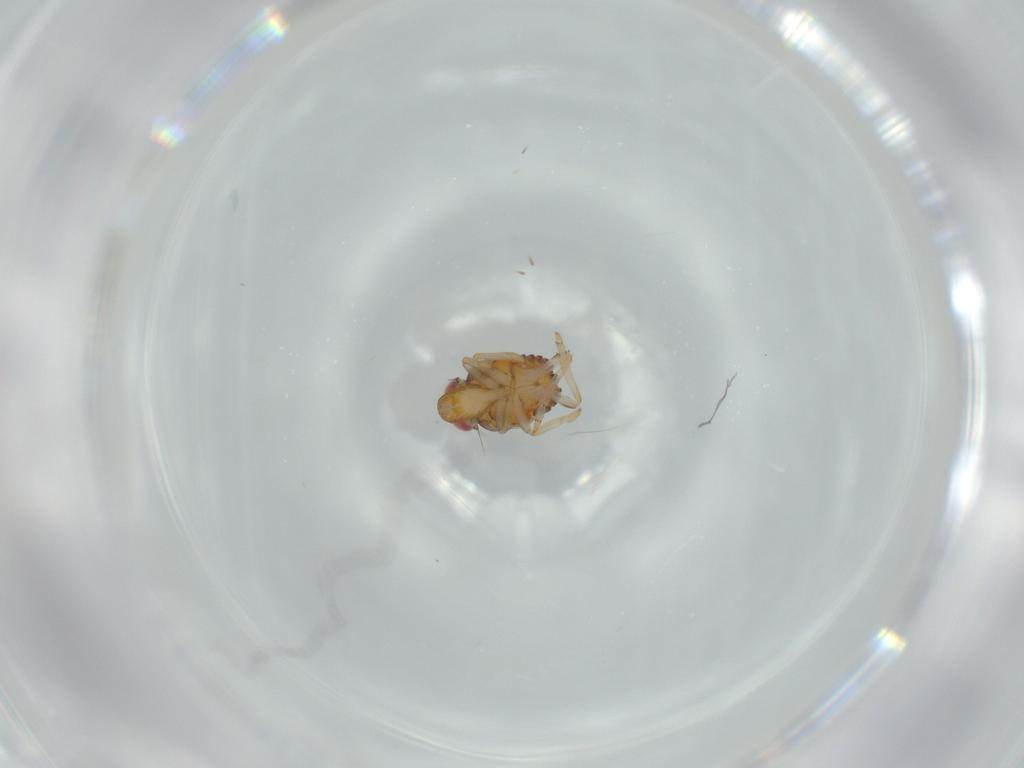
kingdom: Animalia
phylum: Arthropoda
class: Insecta
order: Hemiptera
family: Issidae
